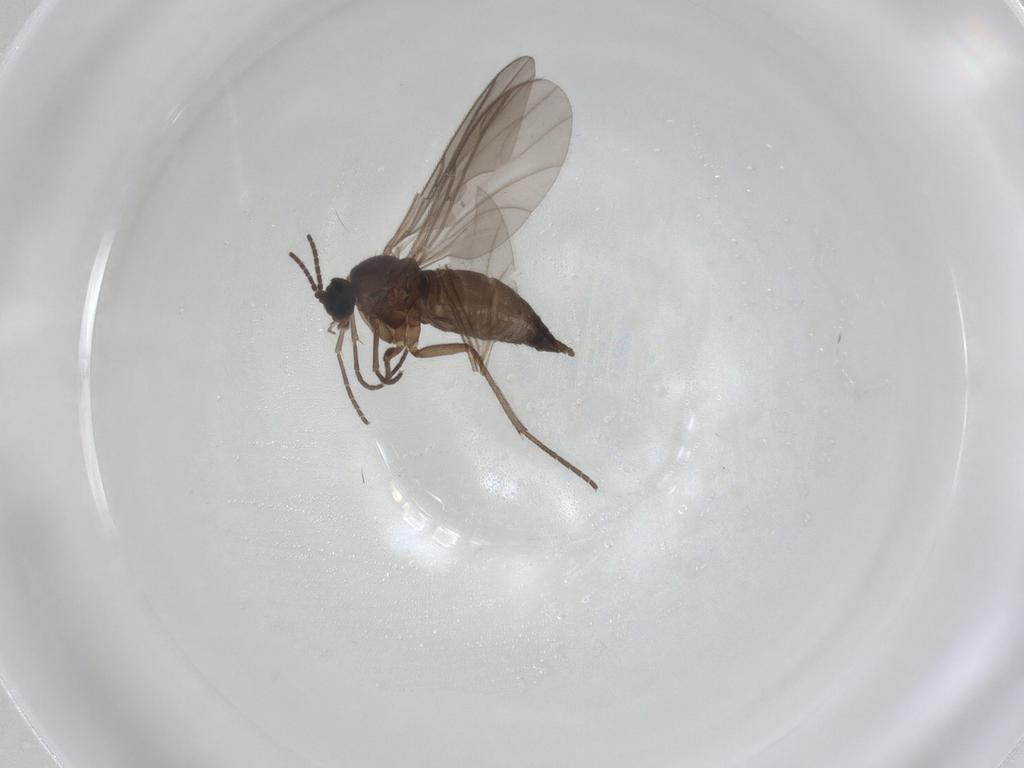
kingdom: Animalia
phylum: Arthropoda
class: Insecta
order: Diptera
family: Sciaridae
